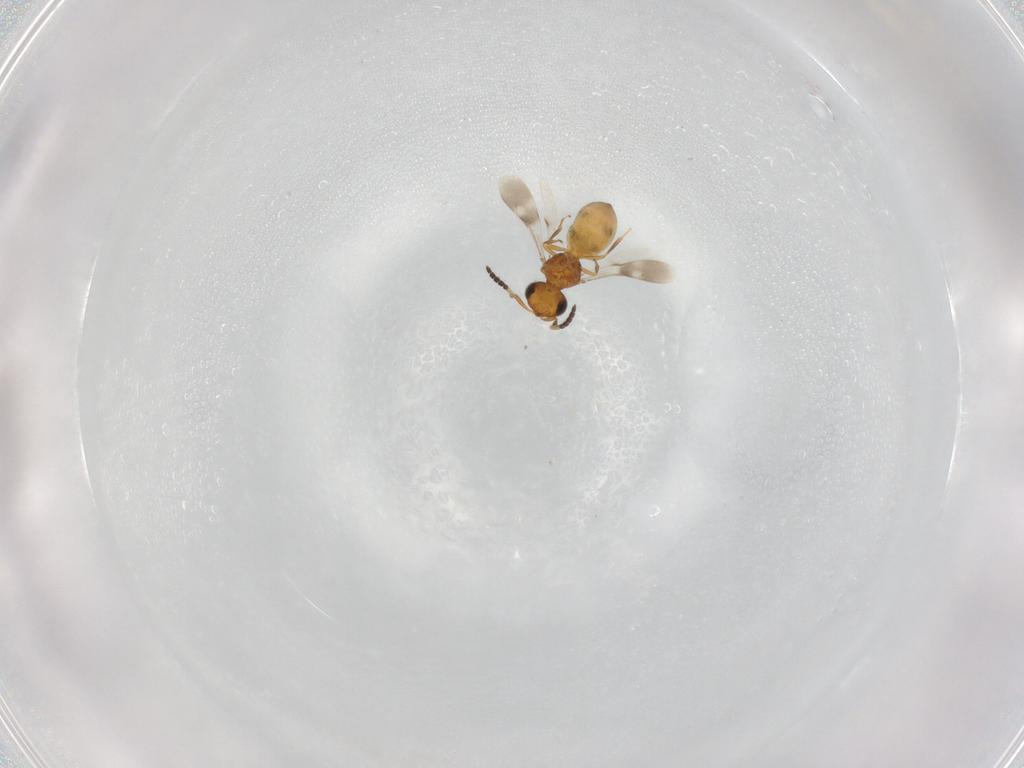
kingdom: Animalia
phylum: Arthropoda
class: Insecta
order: Hymenoptera
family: Scelionidae
